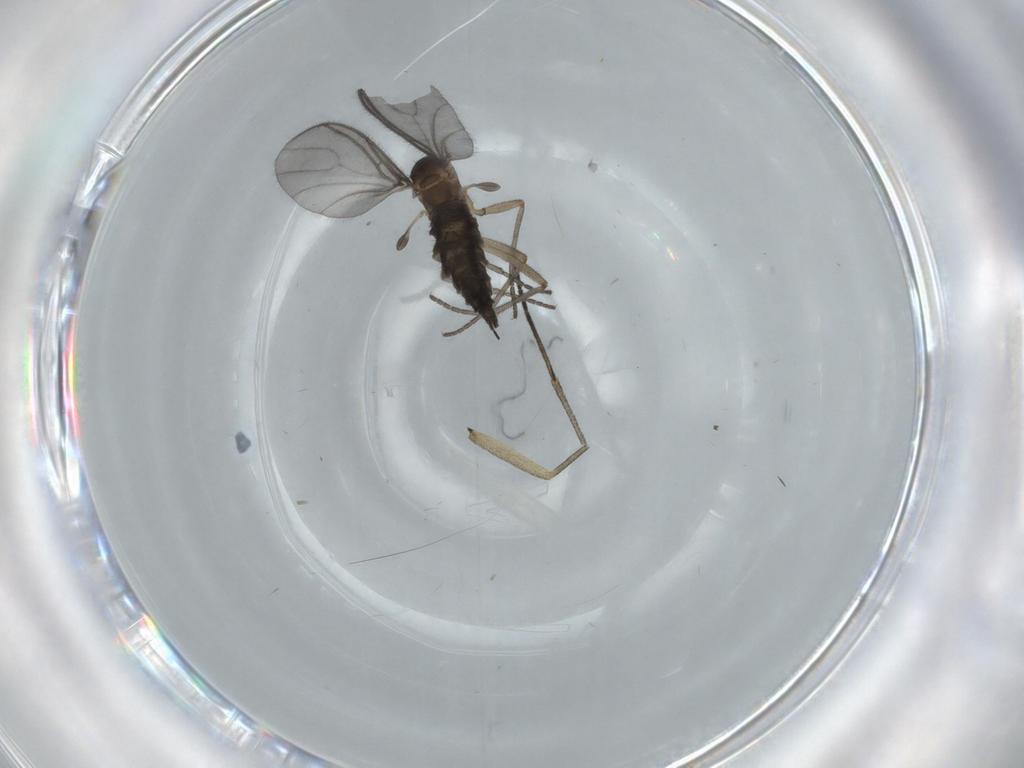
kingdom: Animalia
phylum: Arthropoda
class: Insecta
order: Diptera
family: Sciaridae
